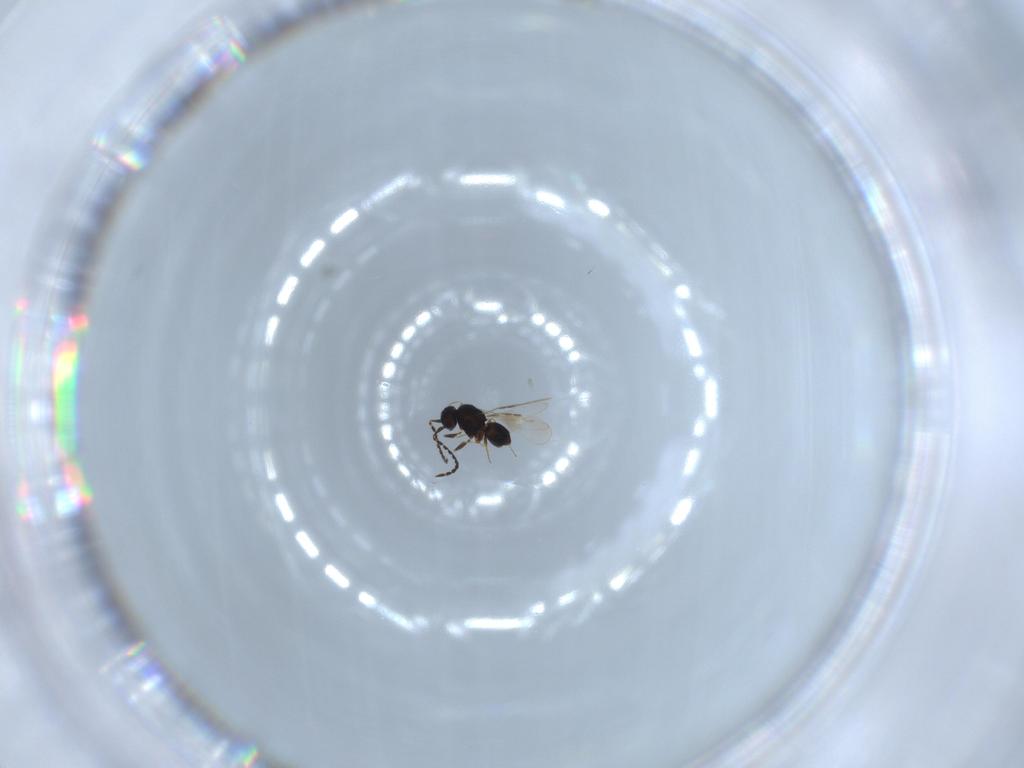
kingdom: Animalia
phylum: Arthropoda
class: Insecta
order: Hymenoptera
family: Ceraphronidae
